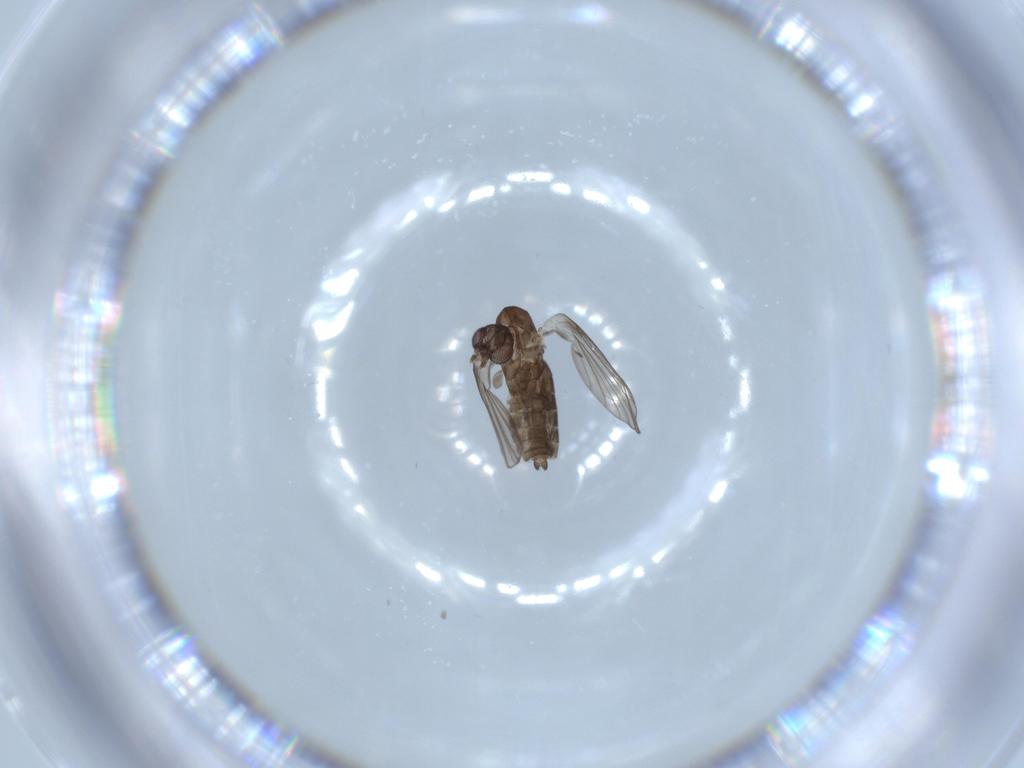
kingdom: Animalia
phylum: Arthropoda
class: Insecta
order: Diptera
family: Psychodidae
